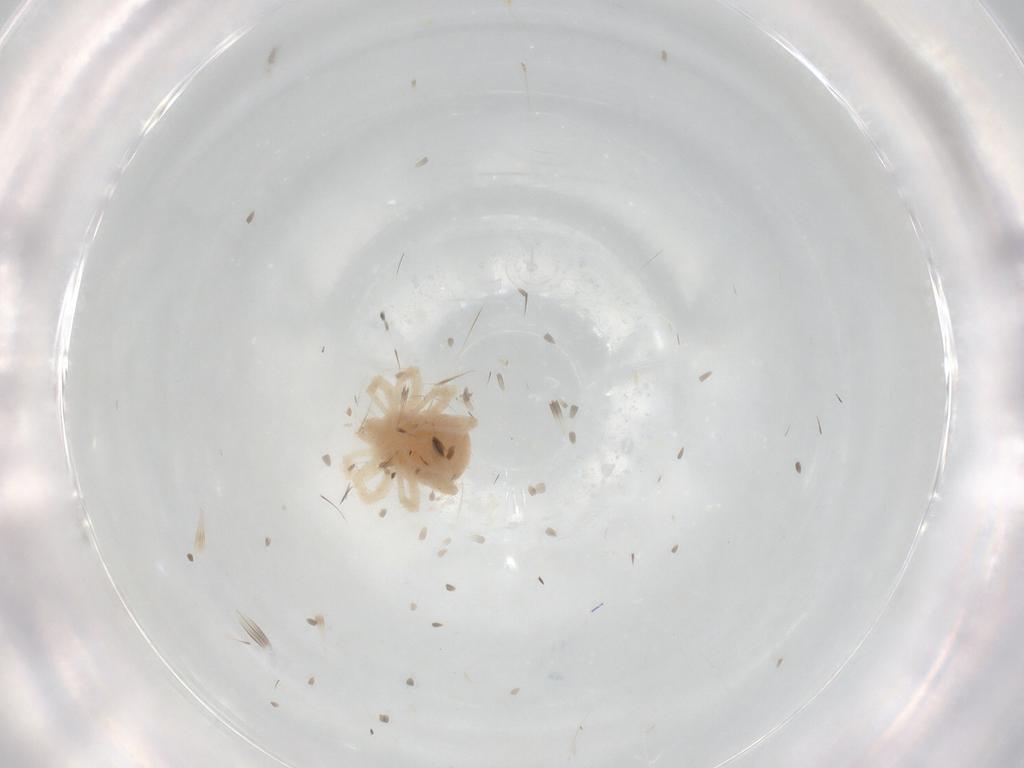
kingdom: Animalia
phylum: Arthropoda
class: Arachnida
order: Trombidiformes
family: Anystidae
